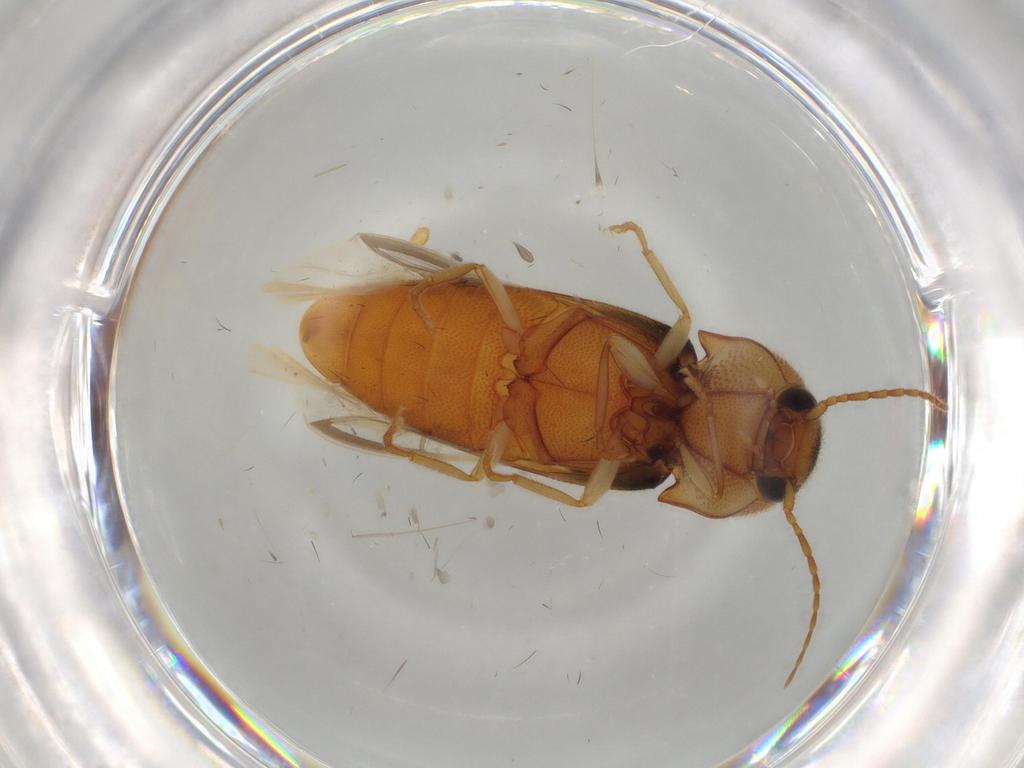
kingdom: Animalia
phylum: Arthropoda
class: Insecta
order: Coleoptera
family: Elateridae
